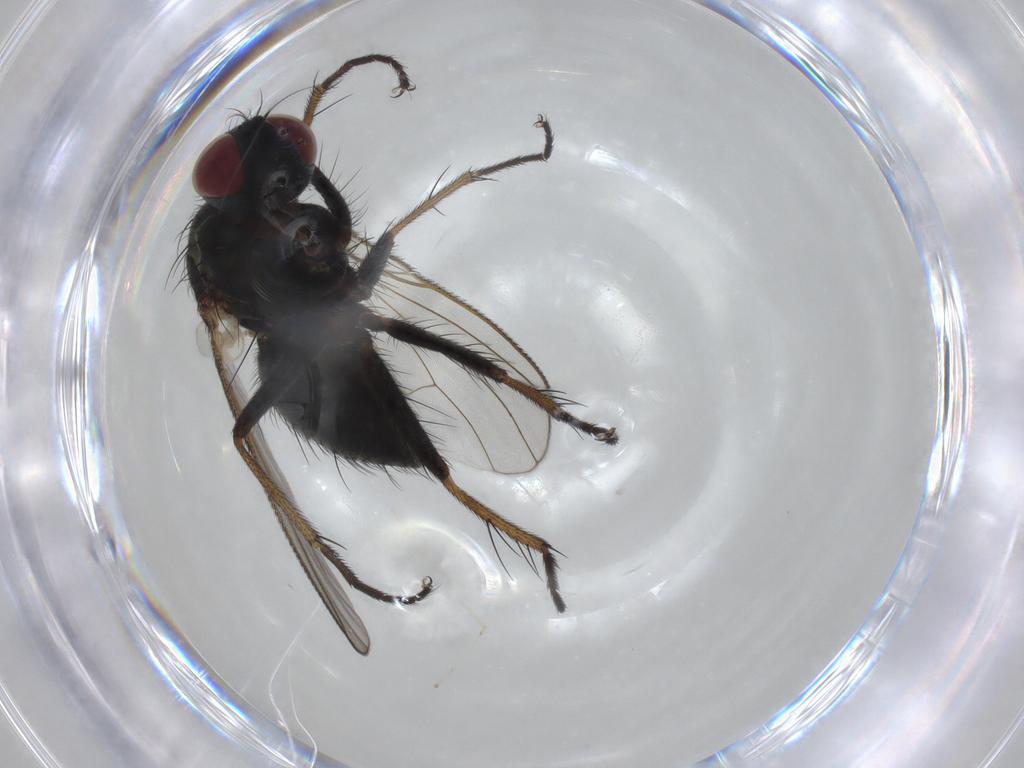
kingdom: Animalia
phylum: Arthropoda
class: Insecta
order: Diptera
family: Muscidae
